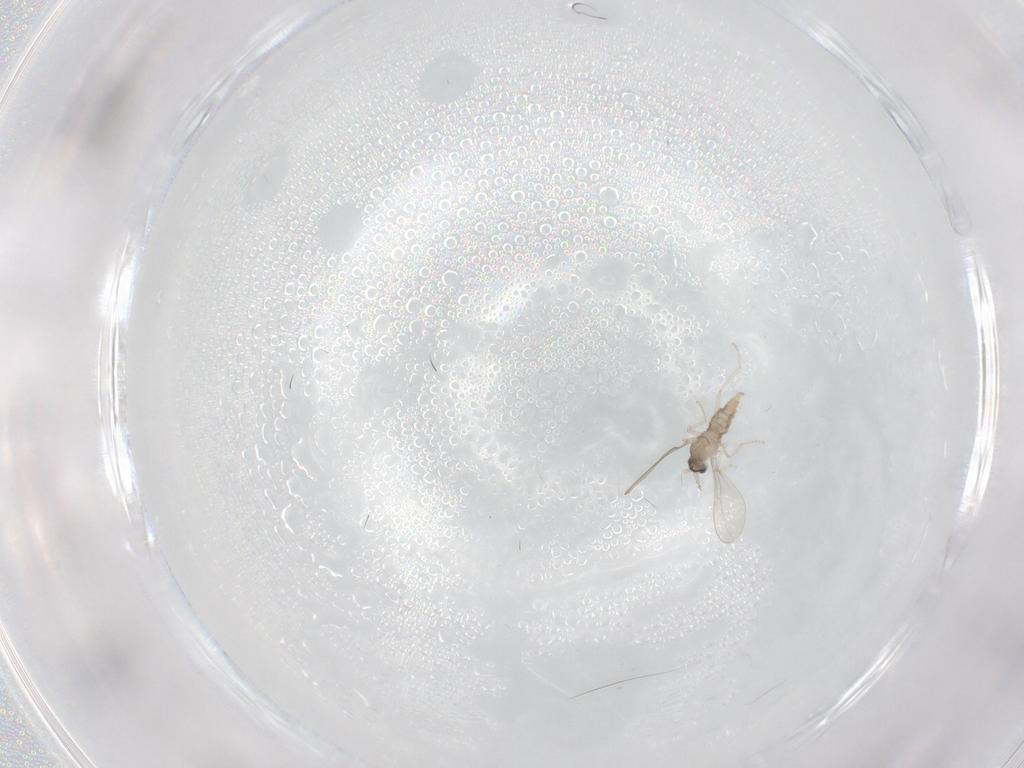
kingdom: Animalia
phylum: Arthropoda
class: Insecta
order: Diptera
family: Cecidomyiidae
